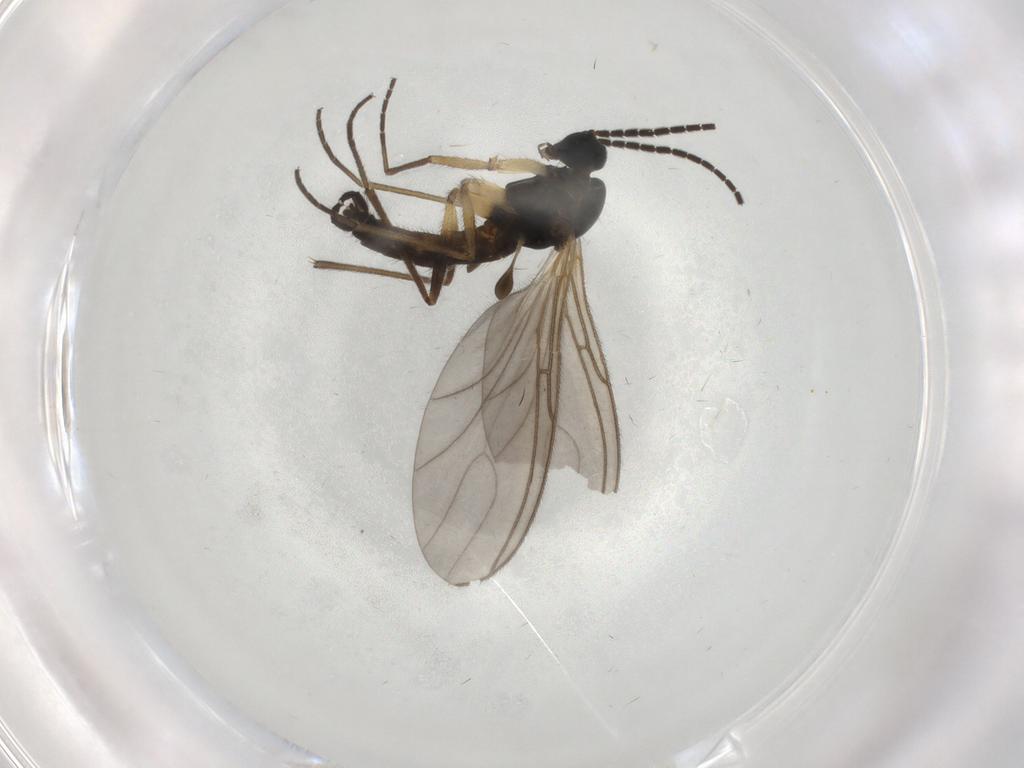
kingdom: Animalia
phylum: Arthropoda
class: Insecta
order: Diptera
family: Sciaridae
